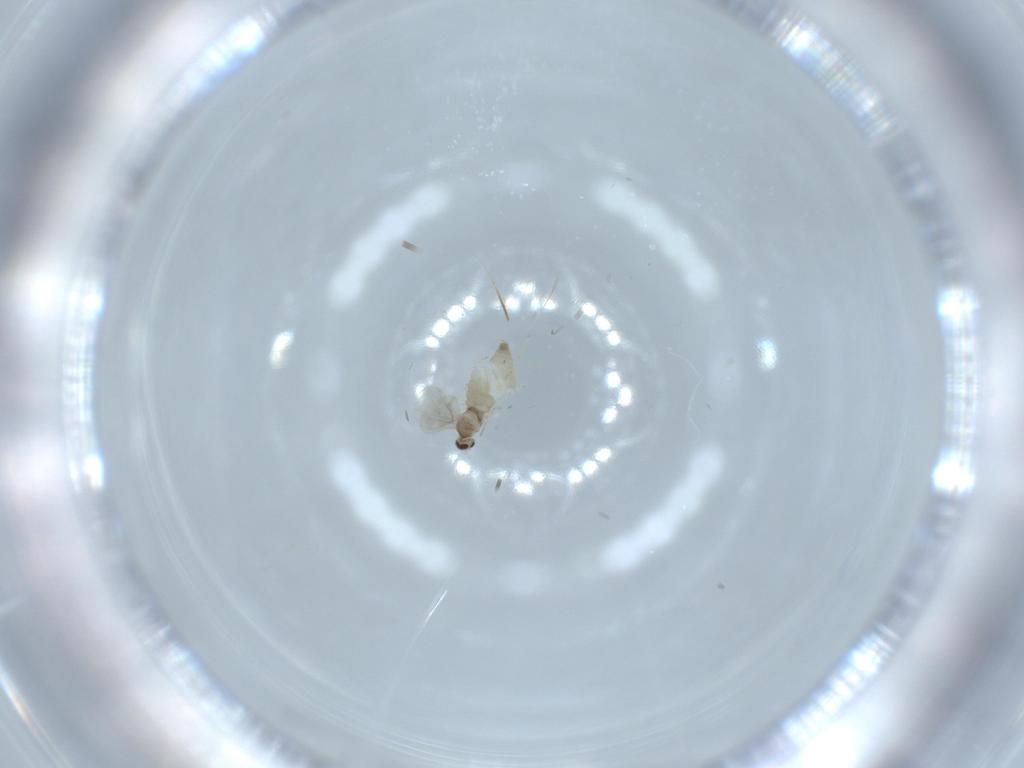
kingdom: Animalia
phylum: Arthropoda
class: Insecta
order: Diptera
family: Cecidomyiidae
